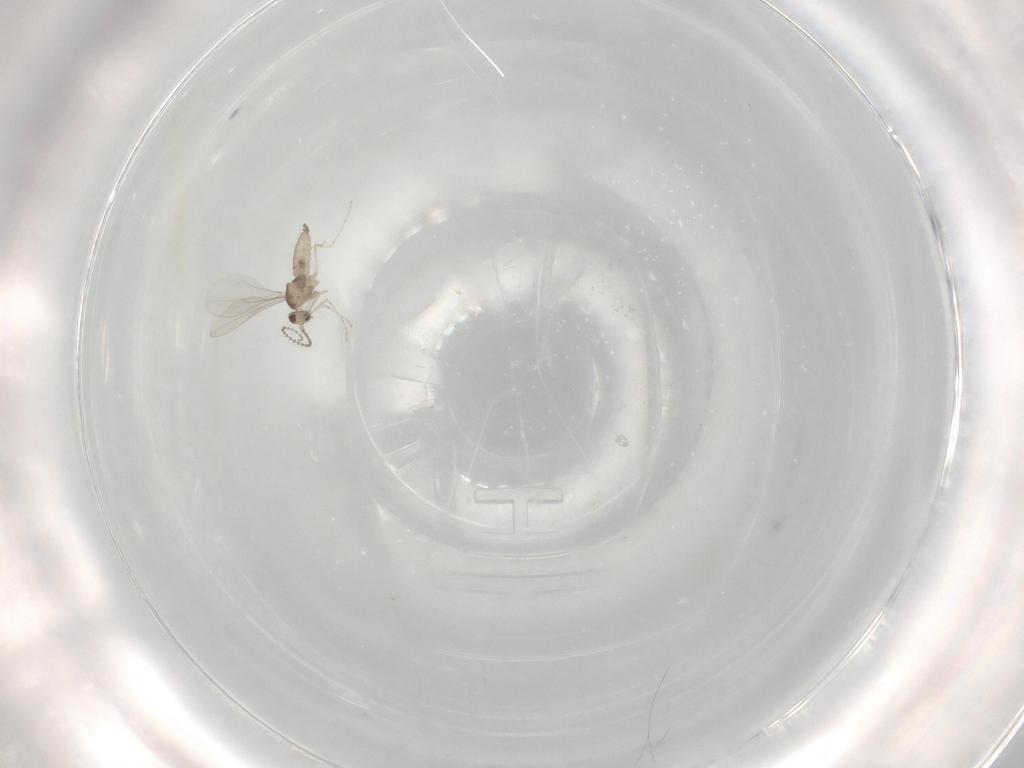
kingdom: Animalia
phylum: Arthropoda
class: Insecta
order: Diptera
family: Cecidomyiidae
